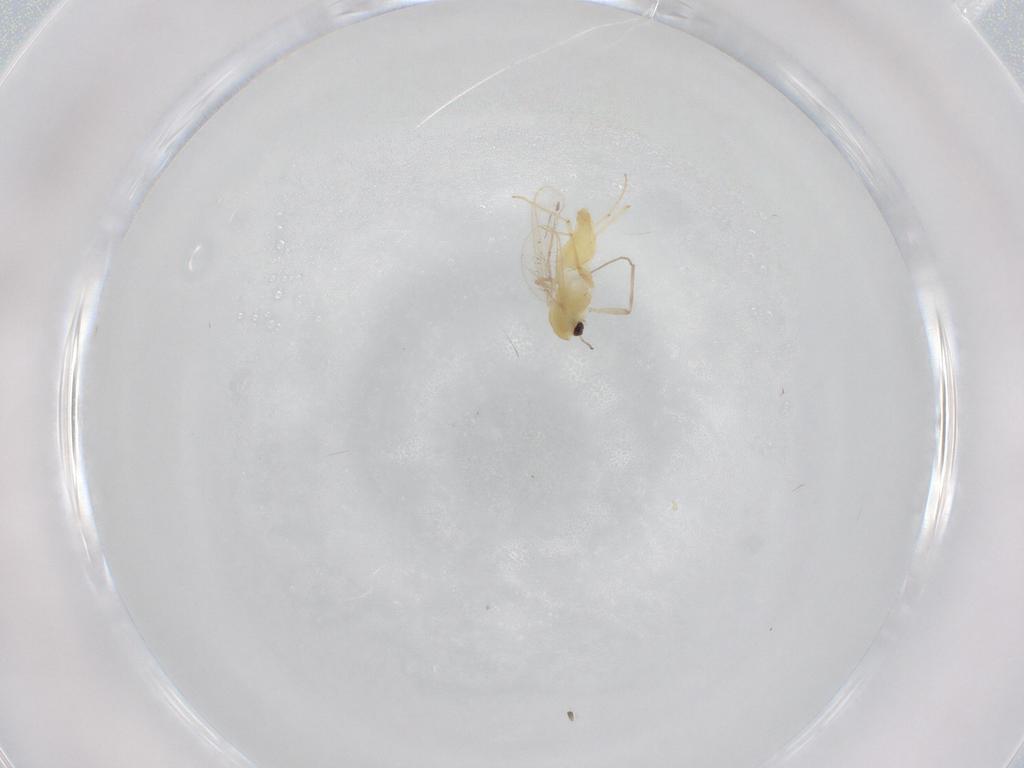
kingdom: Animalia
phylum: Arthropoda
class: Insecta
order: Diptera
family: Chironomidae
